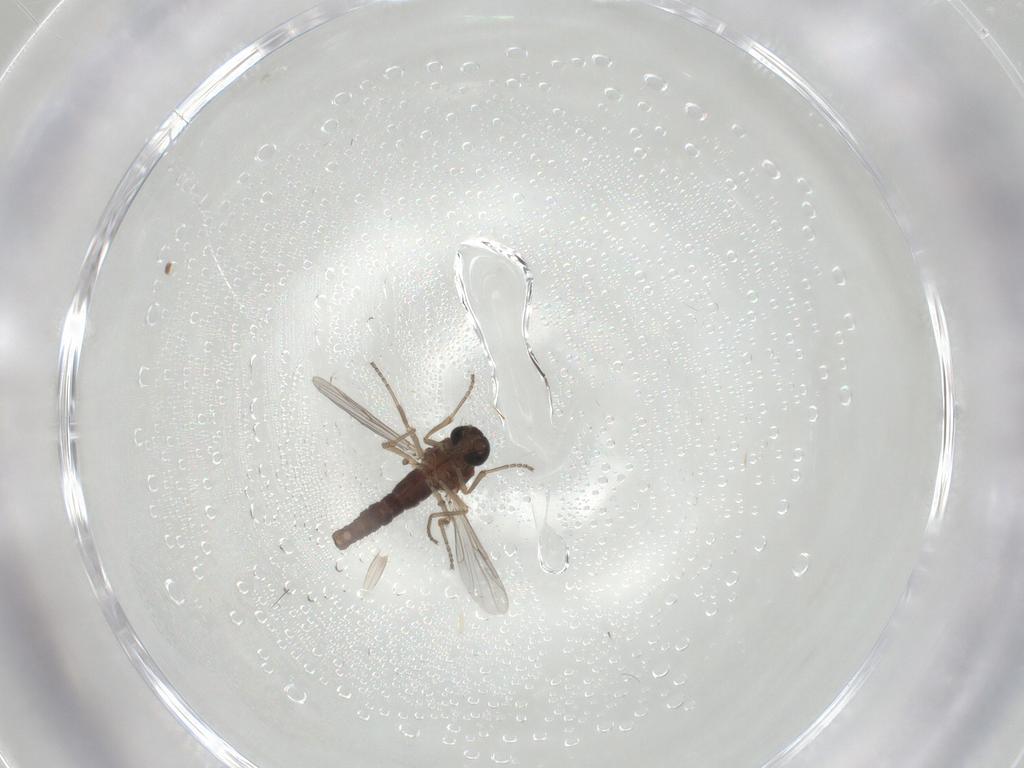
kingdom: Animalia
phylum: Arthropoda
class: Insecta
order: Diptera
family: Ceratopogonidae
